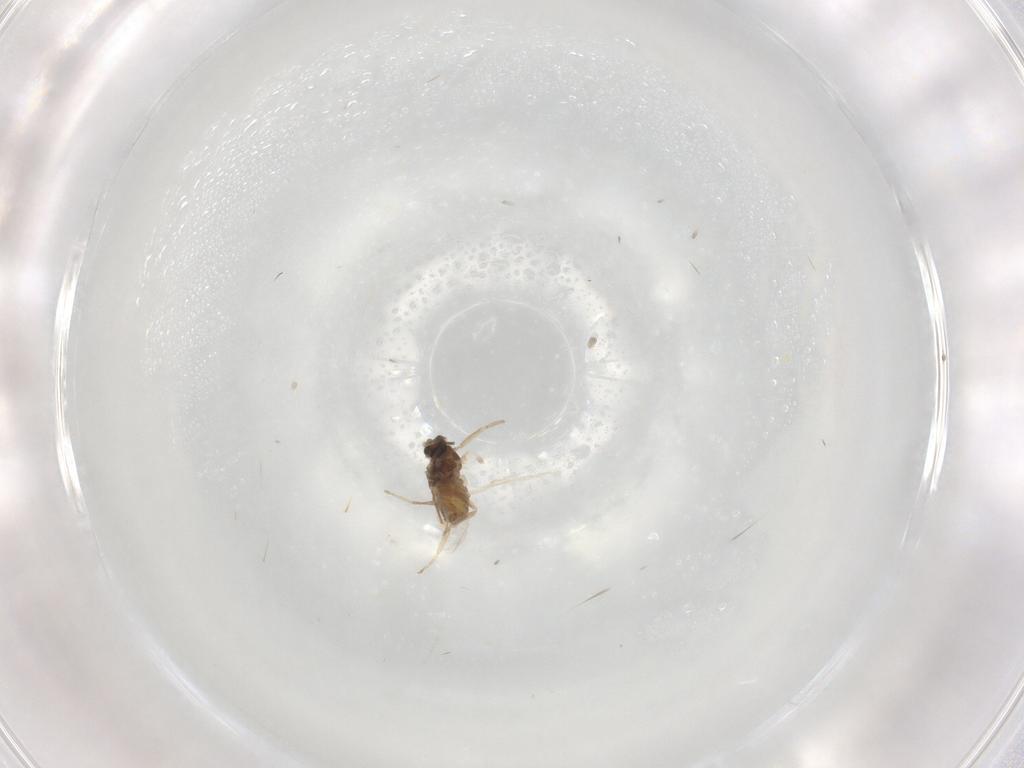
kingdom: Animalia
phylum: Arthropoda
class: Insecta
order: Diptera
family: Cecidomyiidae
